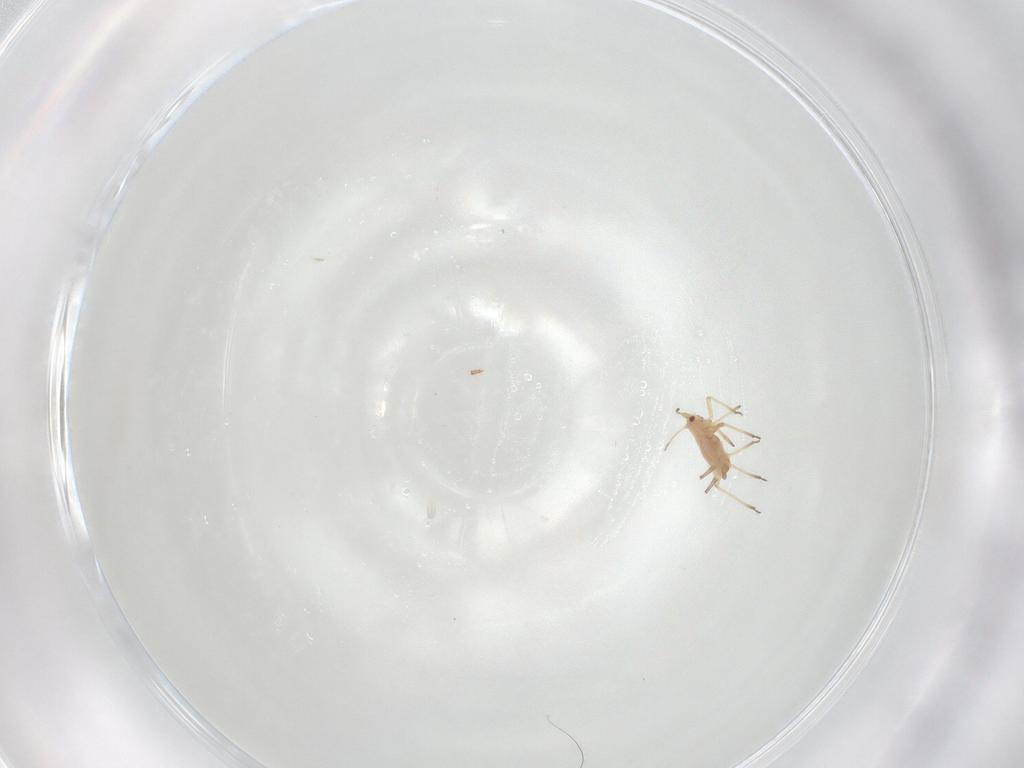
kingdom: Animalia
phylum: Arthropoda
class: Insecta
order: Hemiptera
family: Aphididae
